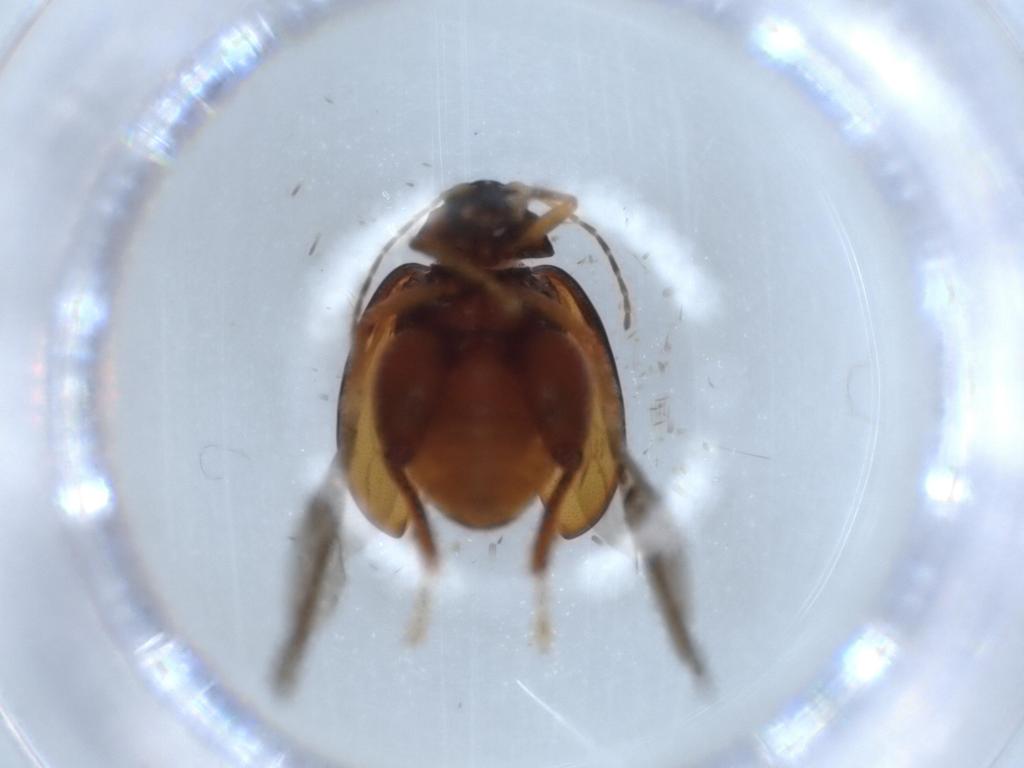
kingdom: Animalia
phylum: Arthropoda
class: Insecta
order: Coleoptera
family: Chrysomelidae
